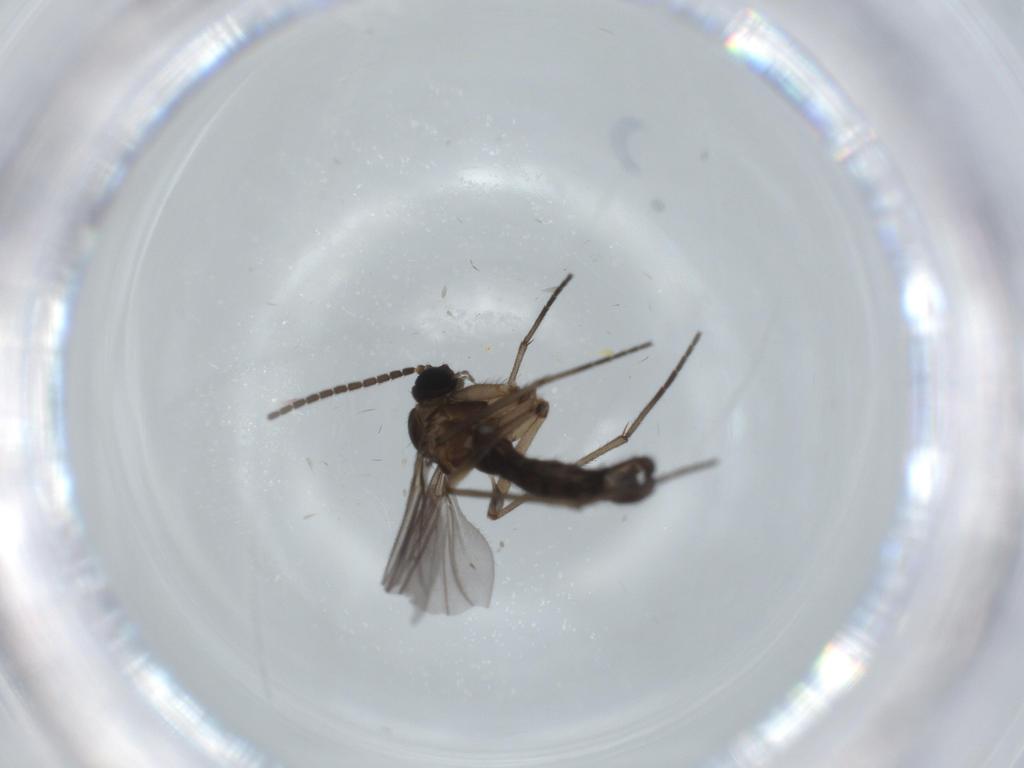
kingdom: Animalia
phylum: Arthropoda
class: Insecta
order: Diptera
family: Sciaridae
